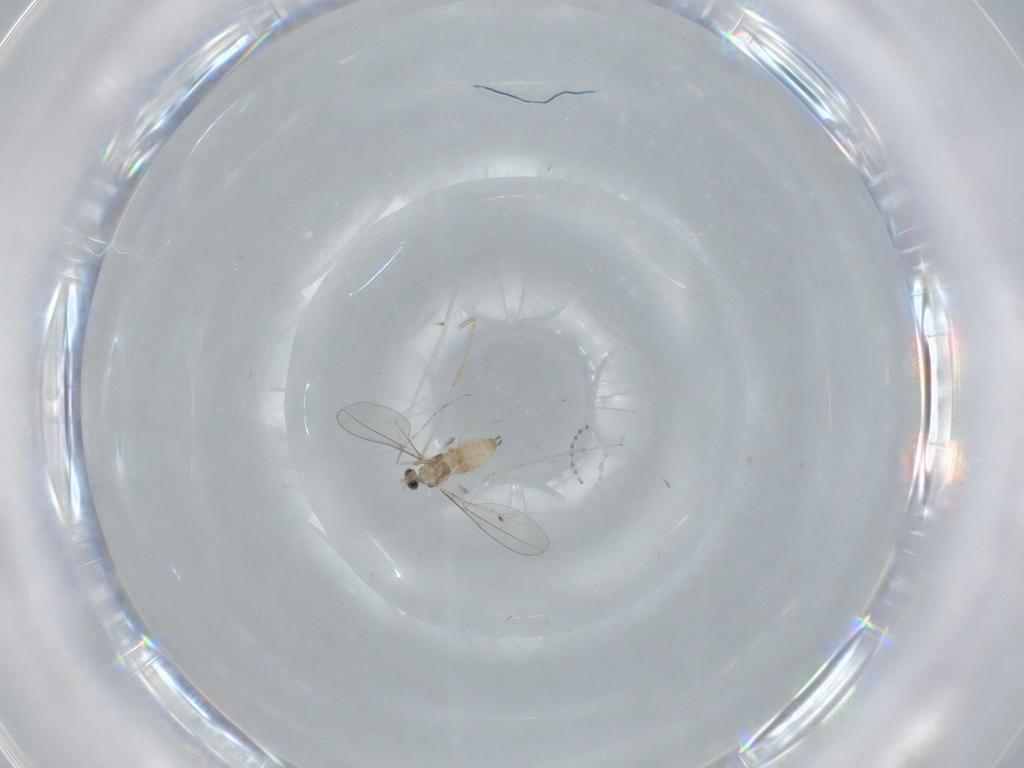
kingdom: Animalia
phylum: Arthropoda
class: Insecta
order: Diptera
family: Cecidomyiidae
